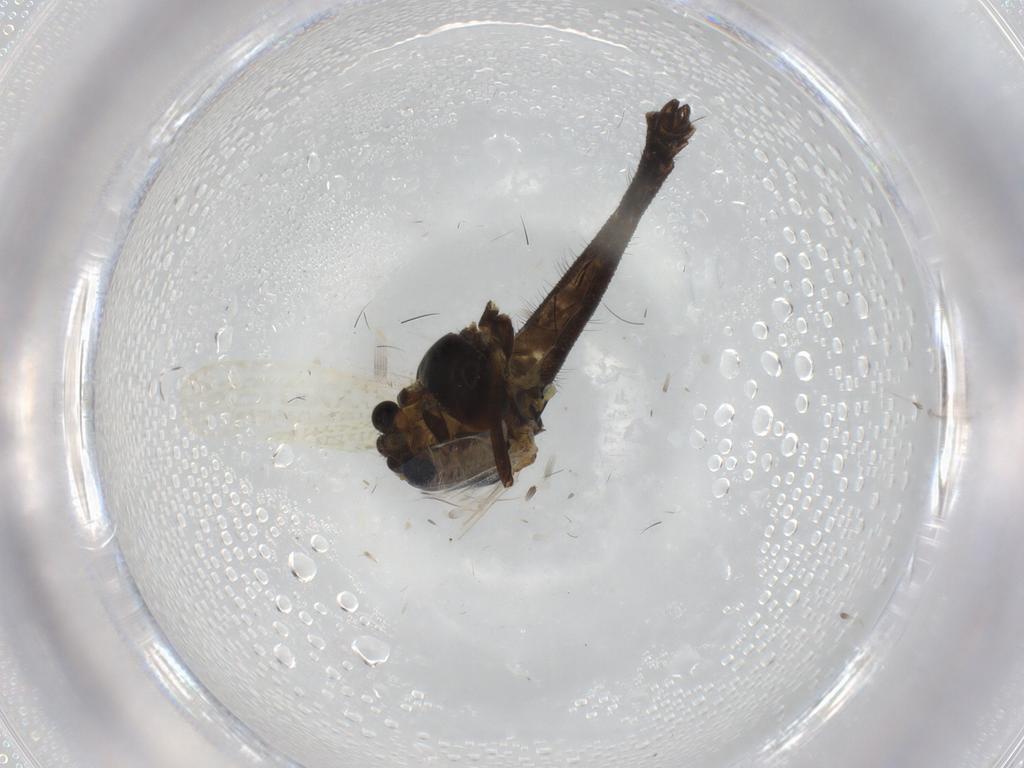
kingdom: Animalia
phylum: Arthropoda
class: Insecta
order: Diptera
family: Chironomidae
